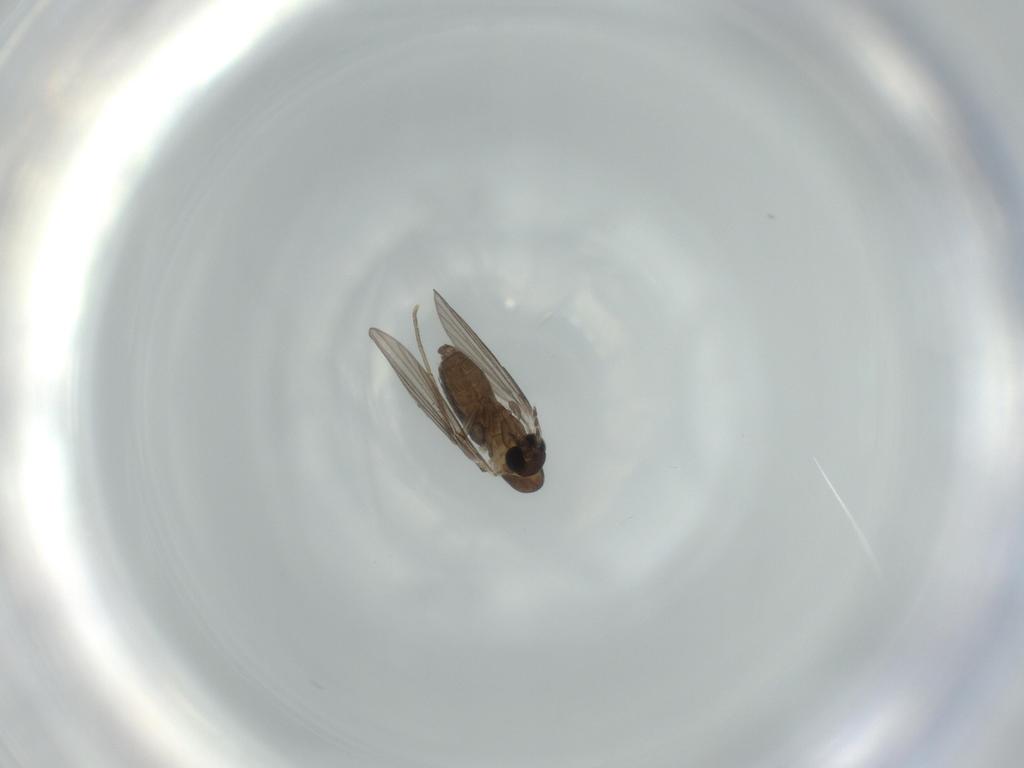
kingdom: Animalia
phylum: Arthropoda
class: Insecta
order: Diptera
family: Psychodidae
